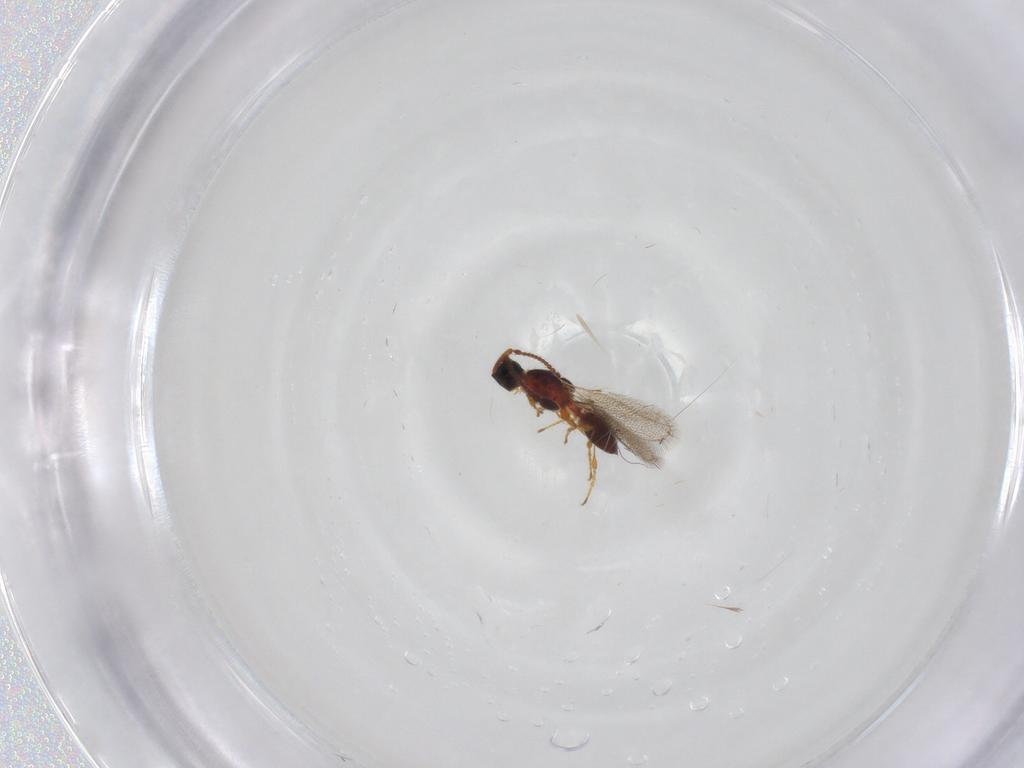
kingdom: Animalia
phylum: Arthropoda
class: Insecta
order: Hymenoptera
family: Diapriidae
